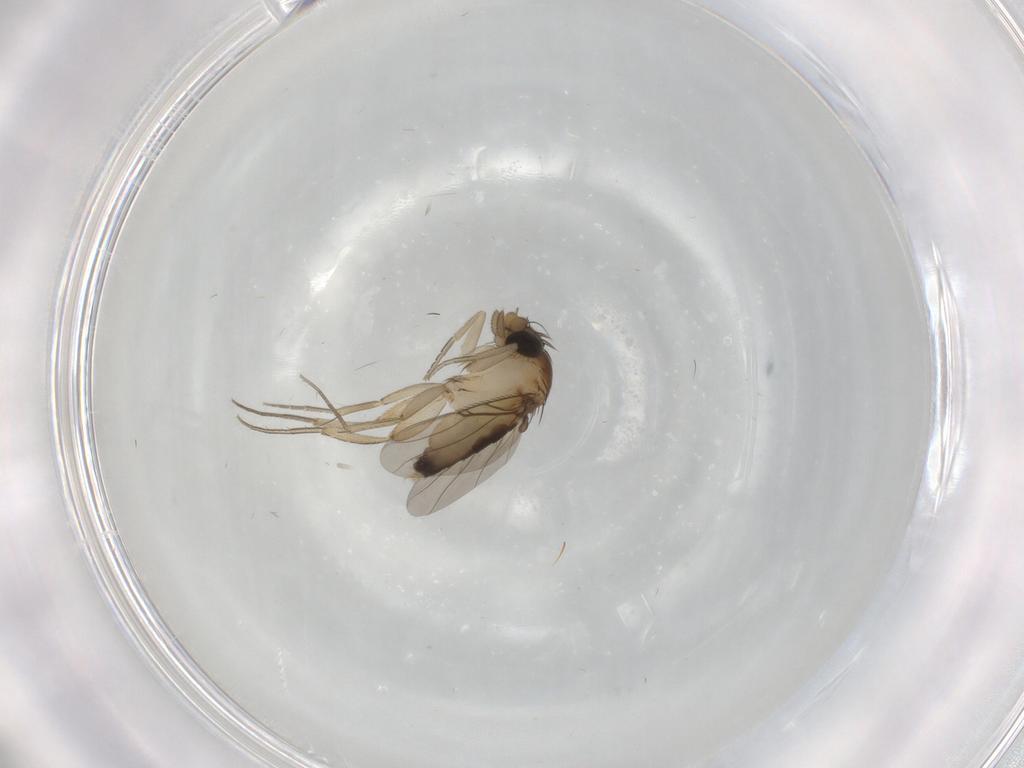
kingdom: Animalia
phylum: Arthropoda
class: Insecta
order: Diptera
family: Phoridae
